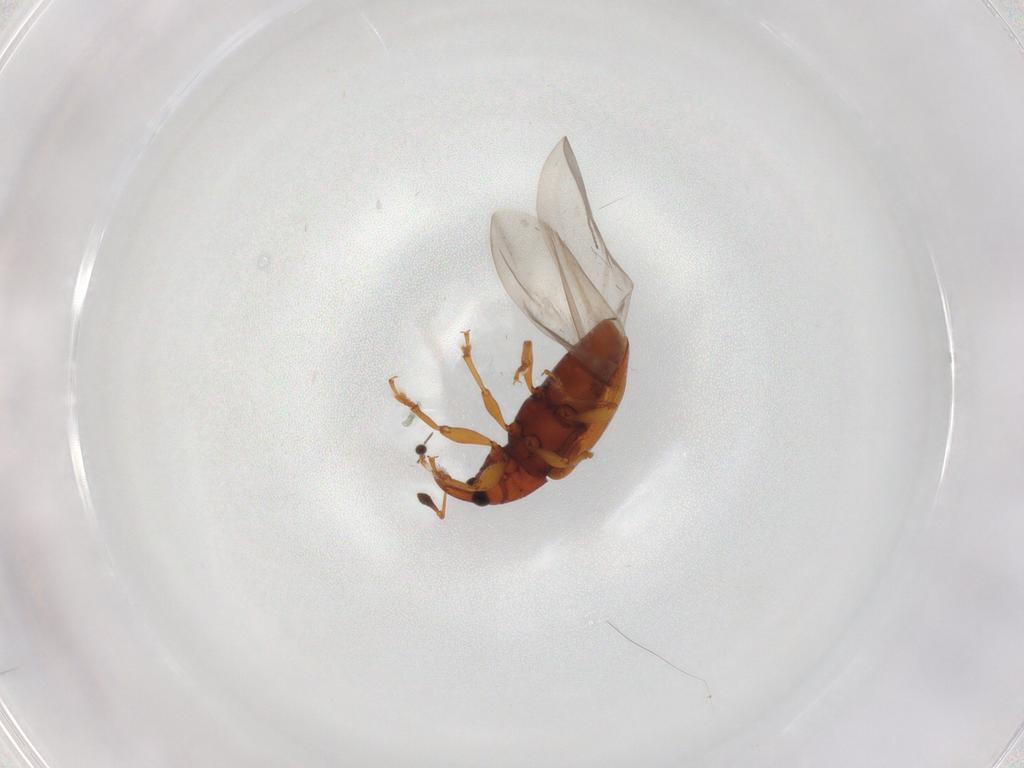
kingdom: Animalia
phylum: Arthropoda
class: Insecta
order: Coleoptera
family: Curculionidae
